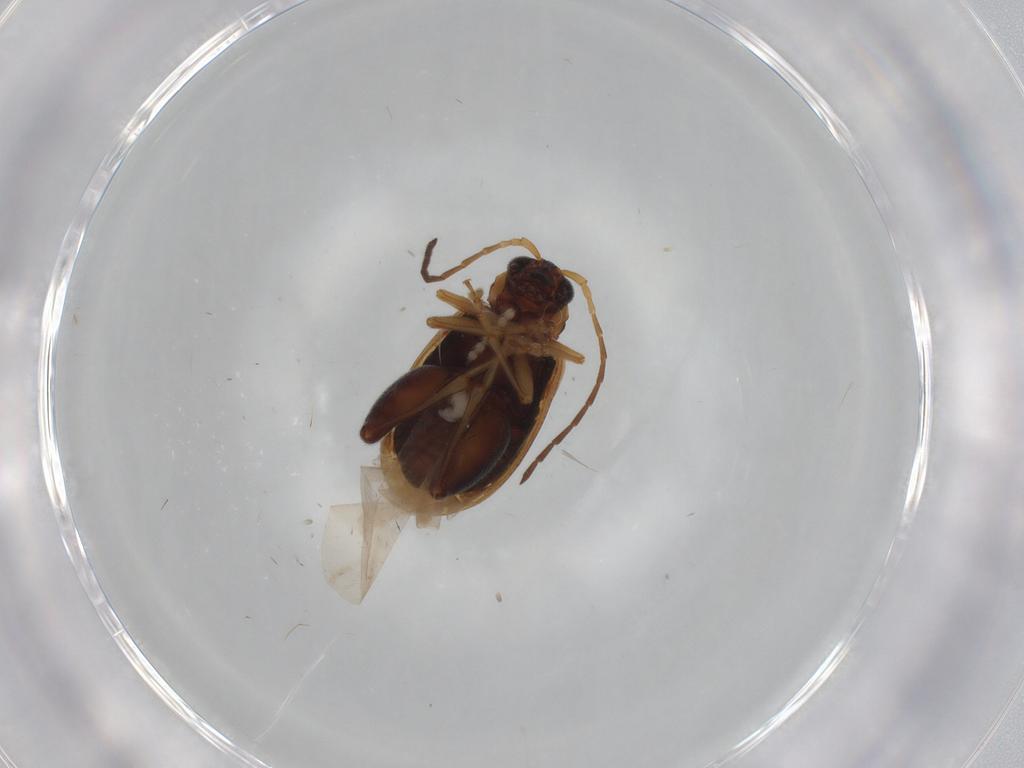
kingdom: Animalia
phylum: Arthropoda
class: Insecta
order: Coleoptera
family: Chrysomelidae
